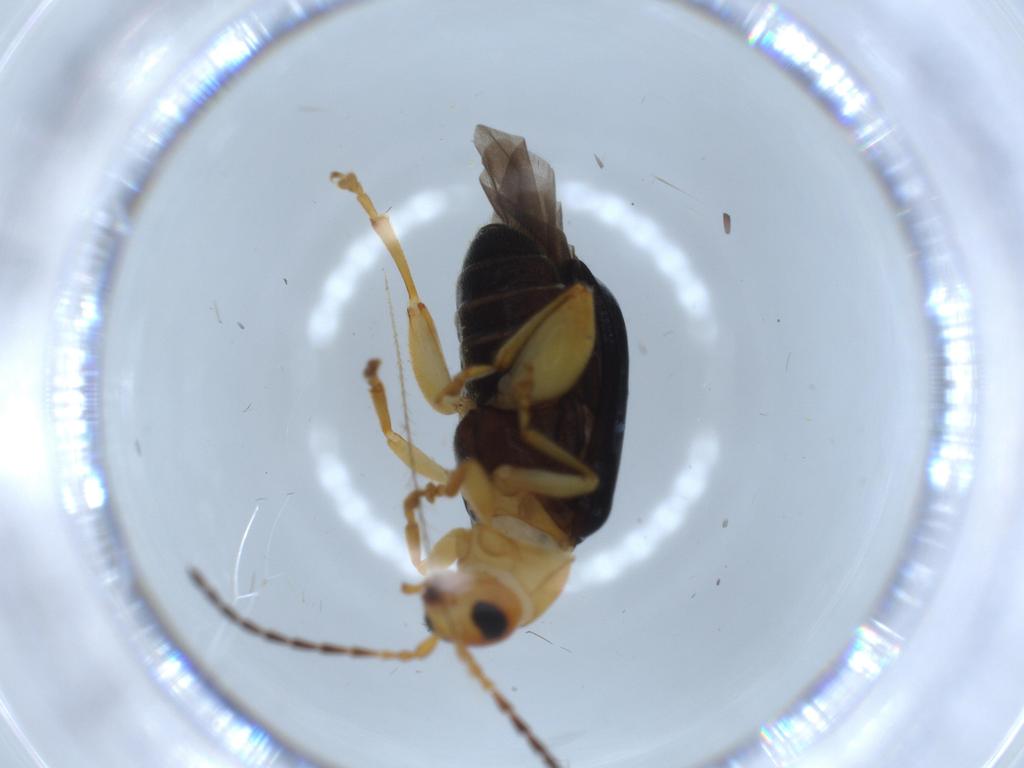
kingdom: Animalia
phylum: Arthropoda
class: Insecta
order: Coleoptera
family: Chrysomelidae
